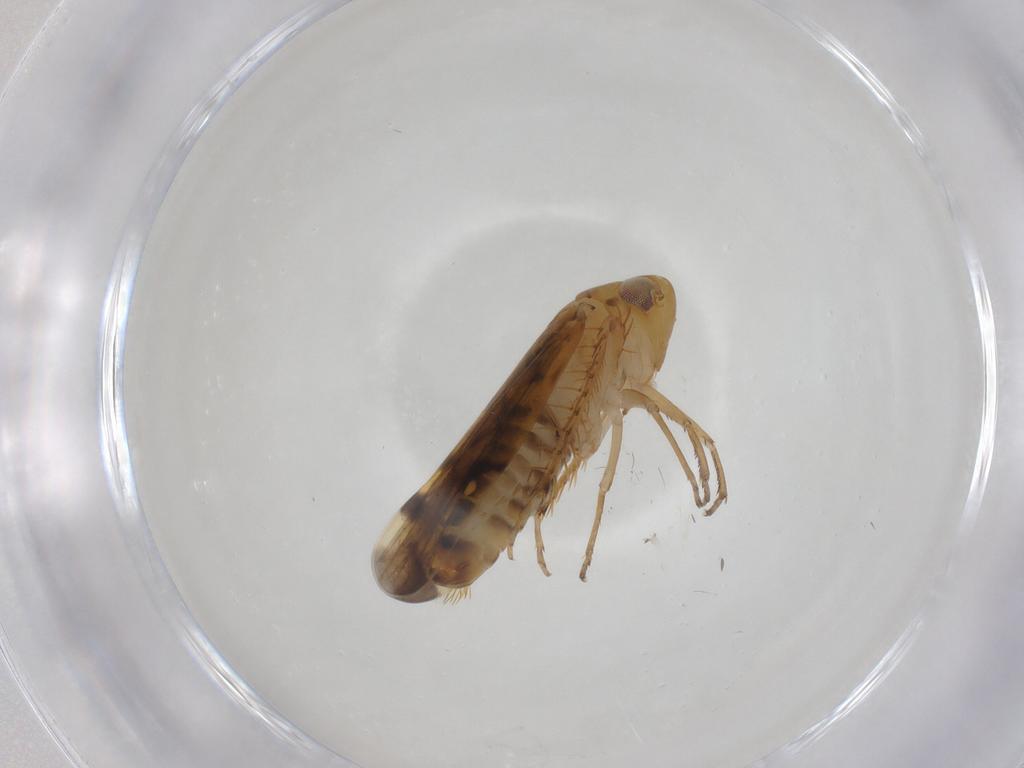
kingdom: Animalia
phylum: Arthropoda
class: Insecta
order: Hemiptera
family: Cicadellidae
